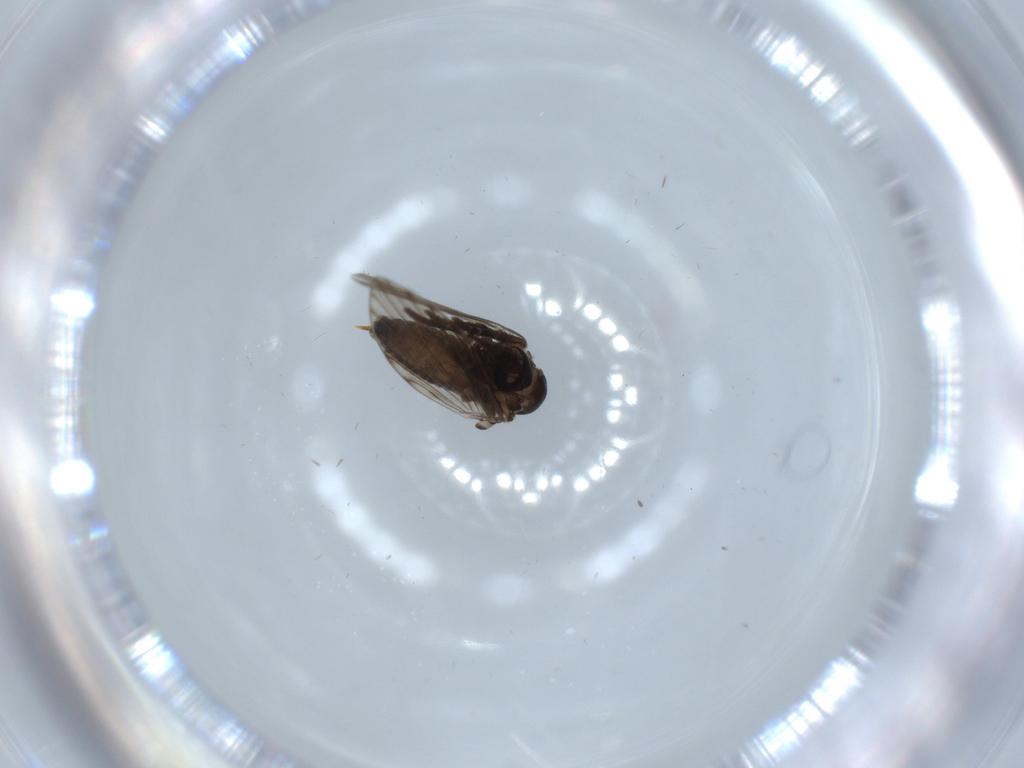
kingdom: Animalia
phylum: Arthropoda
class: Insecta
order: Diptera
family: Psychodidae
